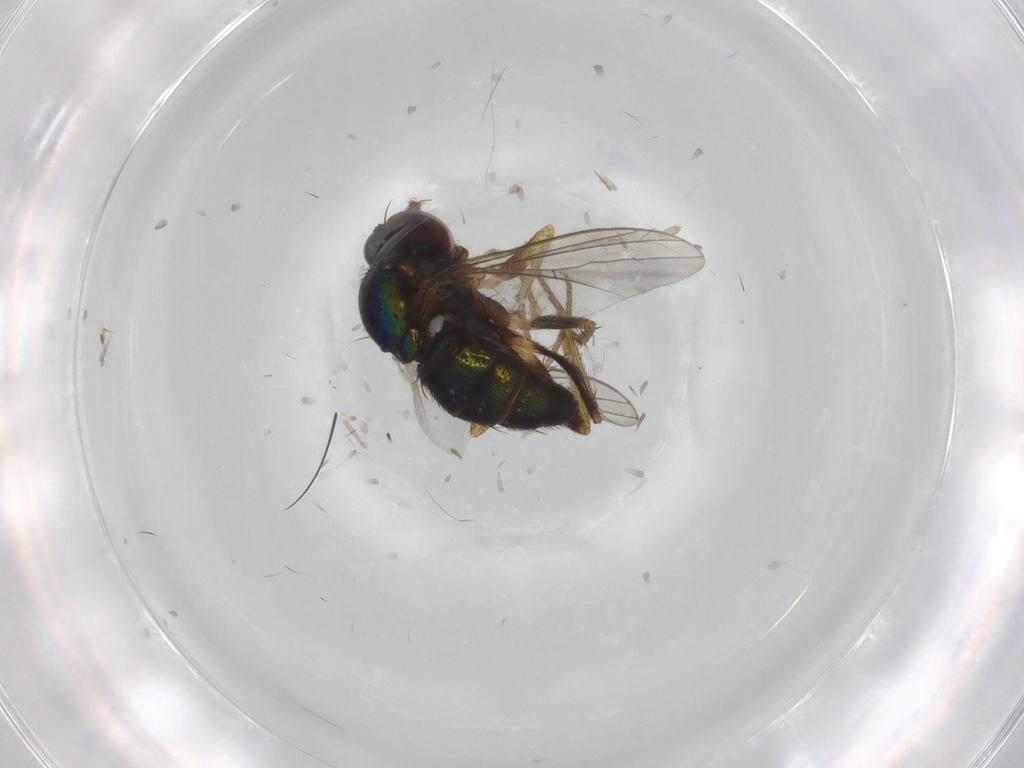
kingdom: Animalia
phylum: Arthropoda
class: Insecta
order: Diptera
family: Dolichopodidae
